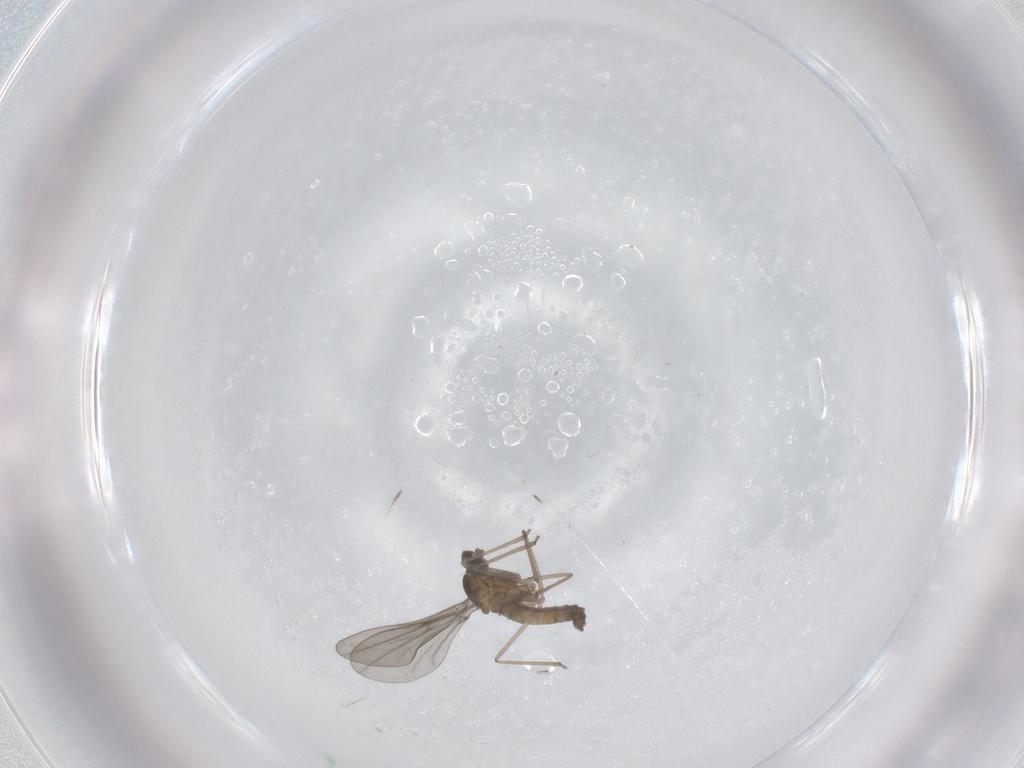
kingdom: Animalia
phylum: Arthropoda
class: Insecta
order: Diptera
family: Cecidomyiidae
